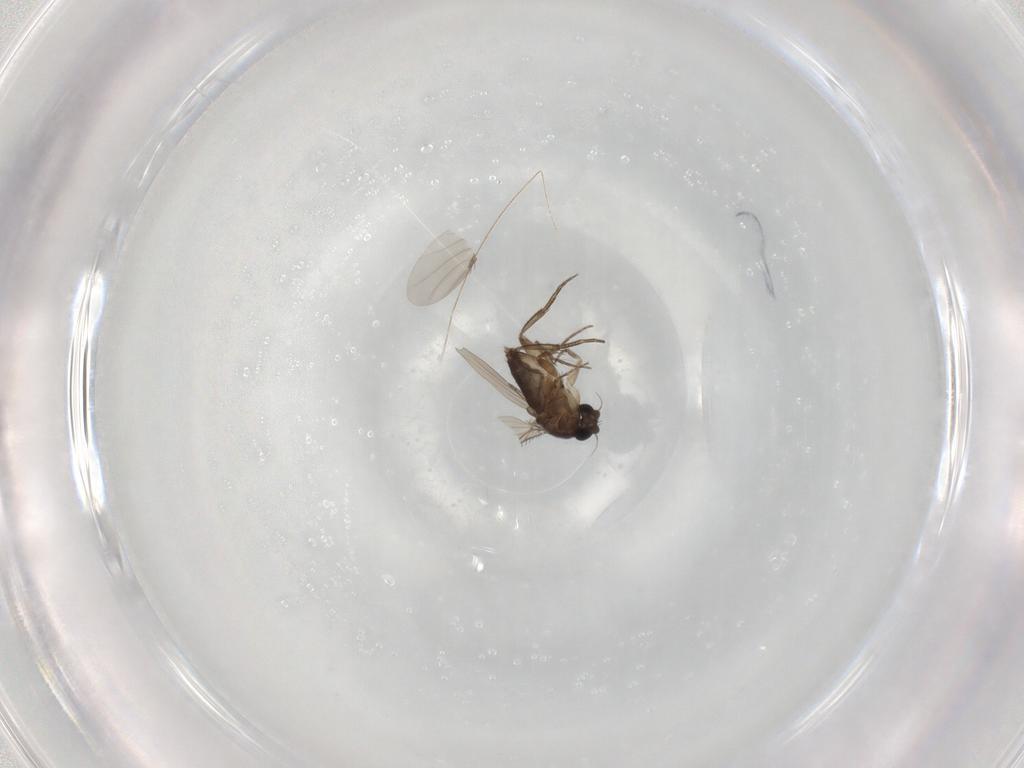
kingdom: Animalia
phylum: Arthropoda
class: Insecta
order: Diptera
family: Phoridae
